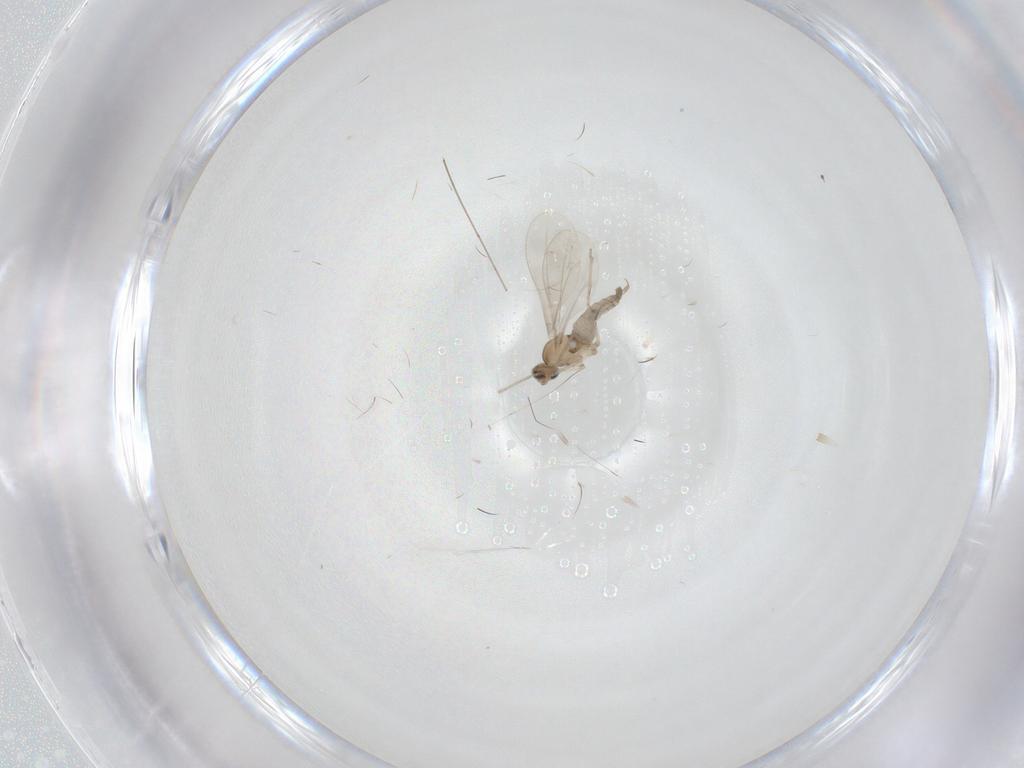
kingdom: Animalia
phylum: Arthropoda
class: Insecta
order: Diptera
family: Cecidomyiidae
